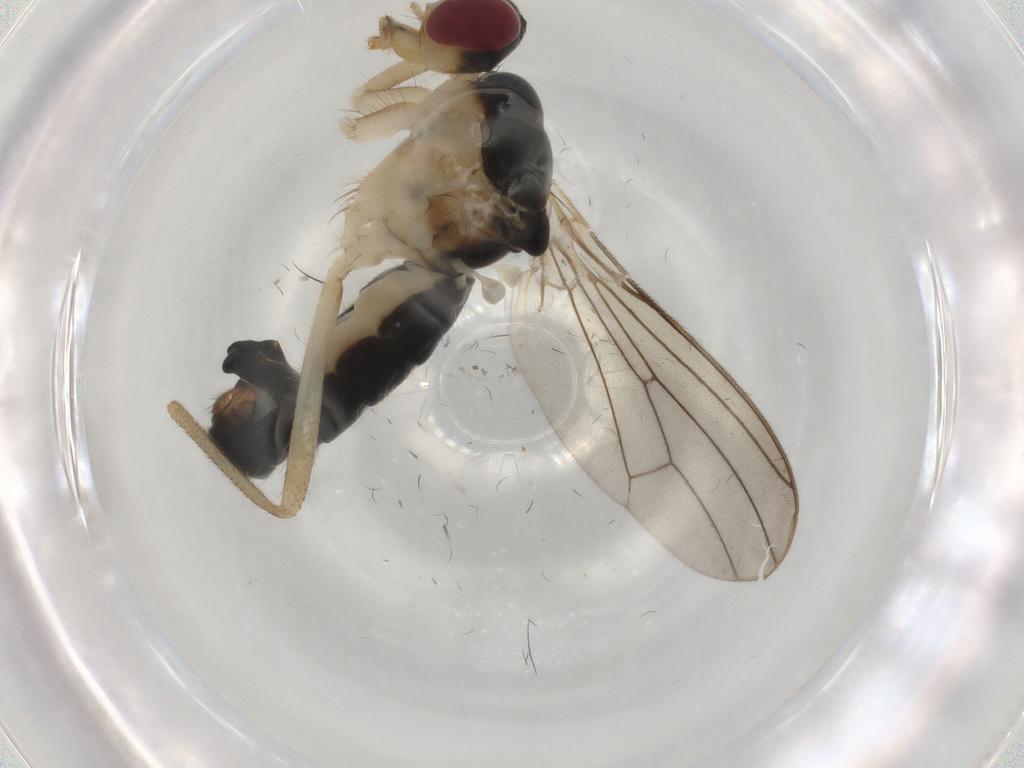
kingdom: Animalia
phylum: Arthropoda
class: Insecta
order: Diptera
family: Scathophagidae
